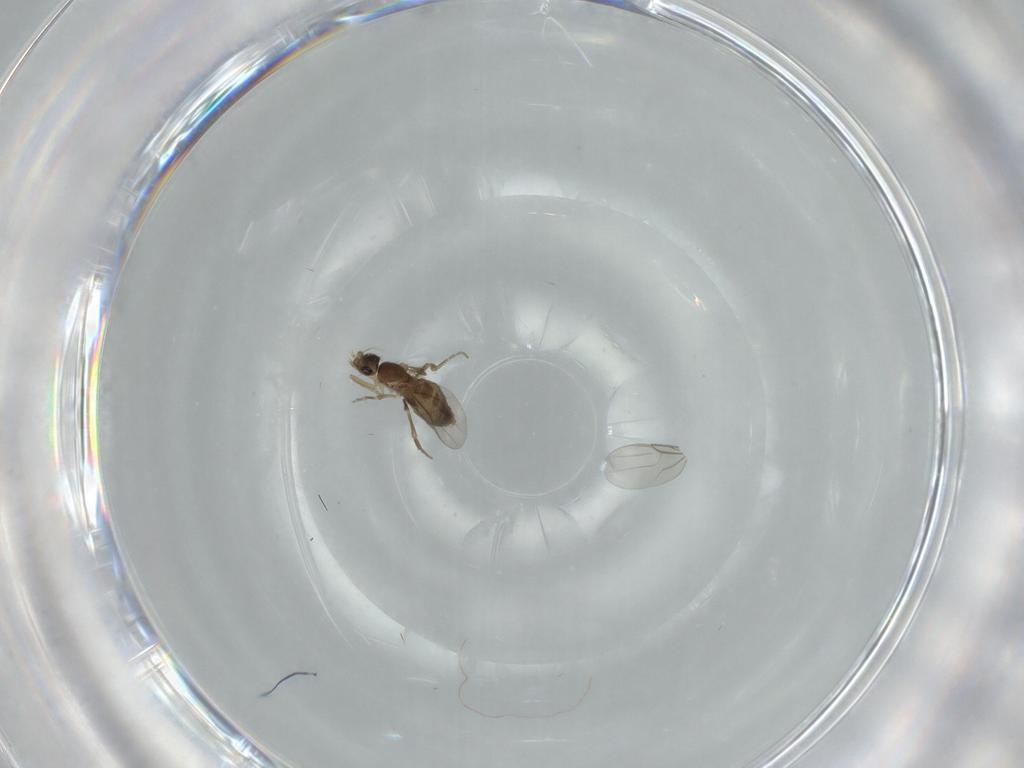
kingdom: Animalia
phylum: Arthropoda
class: Insecta
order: Diptera
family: Phoridae
